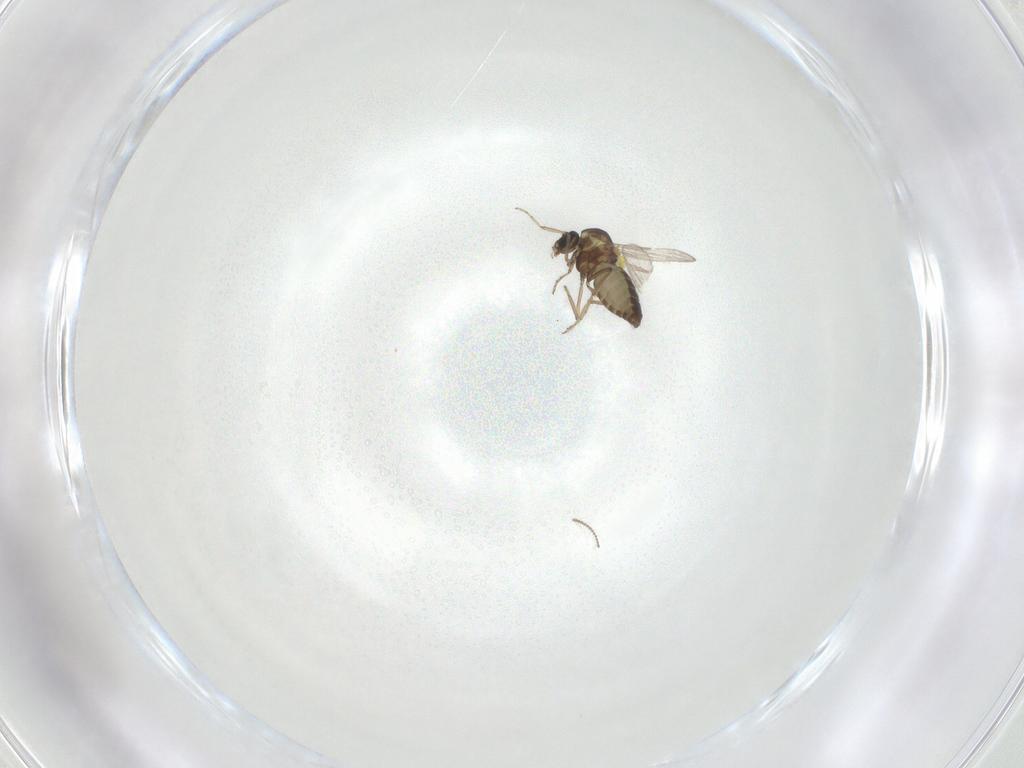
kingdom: Animalia
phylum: Arthropoda
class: Insecta
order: Diptera
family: Ceratopogonidae
